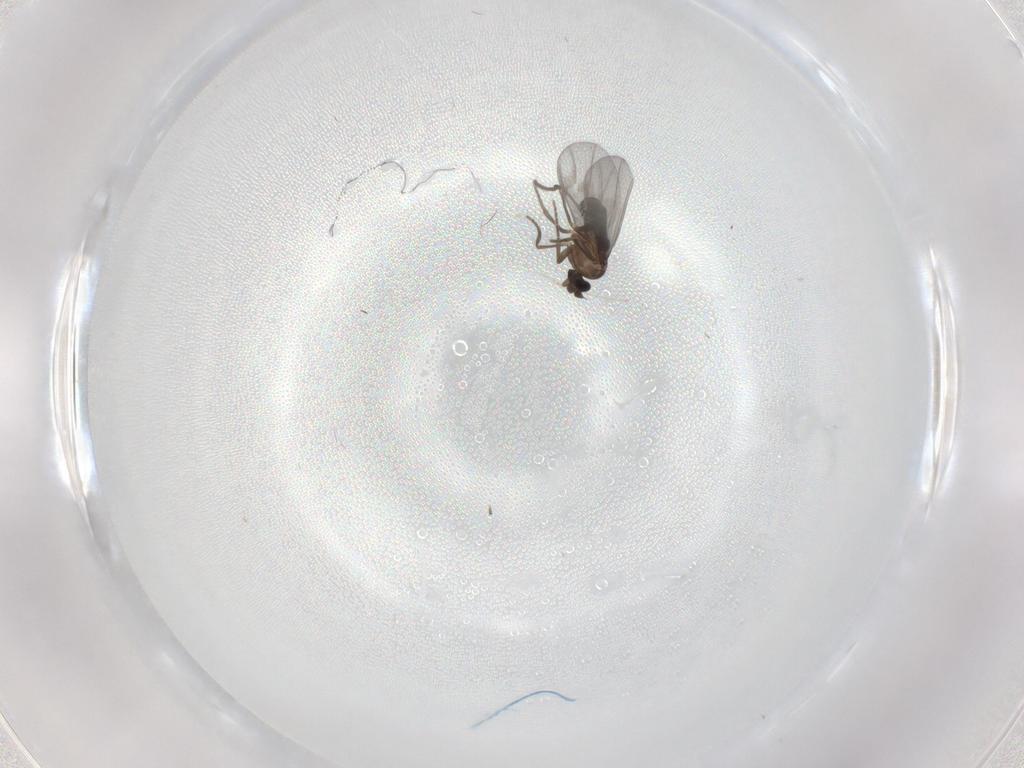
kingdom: Animalia
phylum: Arthropoda
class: Insecta
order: Diptera
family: Phoridae
